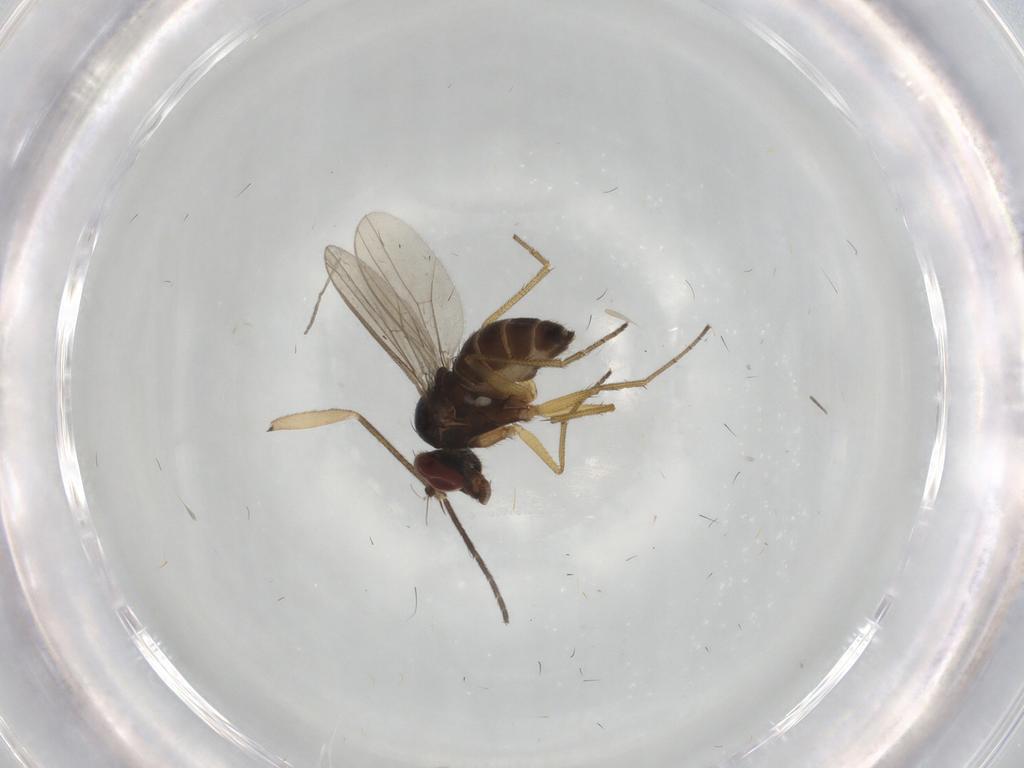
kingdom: Animalia
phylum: Arthropoda
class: Insecta
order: Diptera
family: Dolichopodidae
